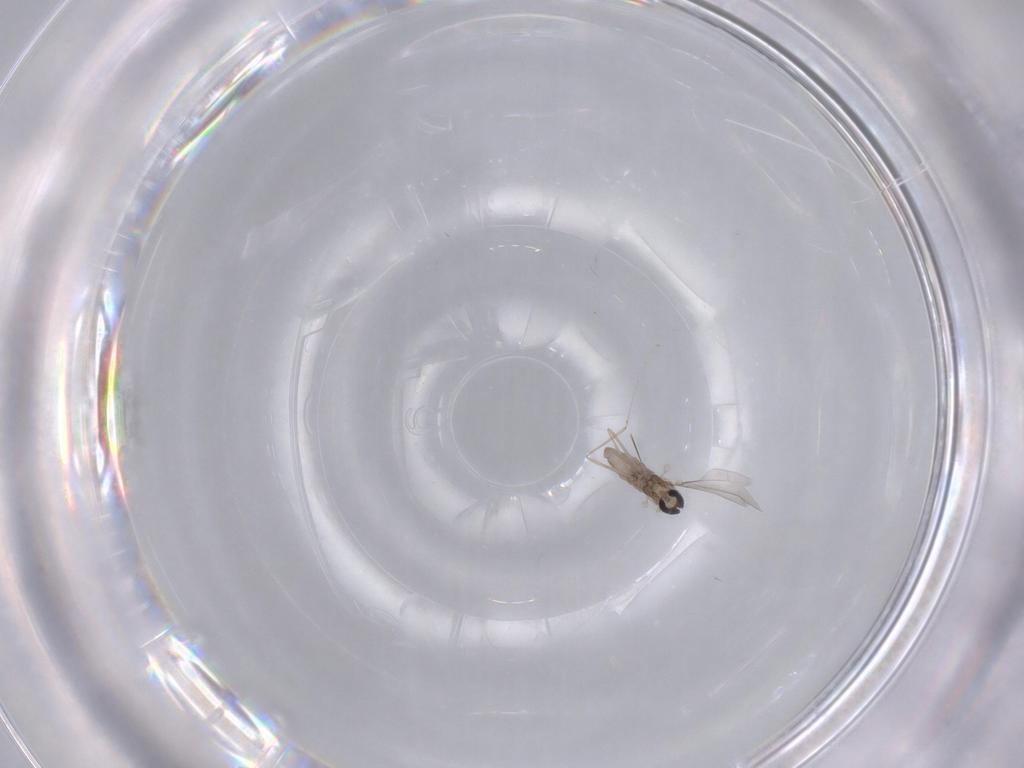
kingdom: Animalia
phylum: Arthropoda
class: Insecta
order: Diptera
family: Cecidomyiidae
